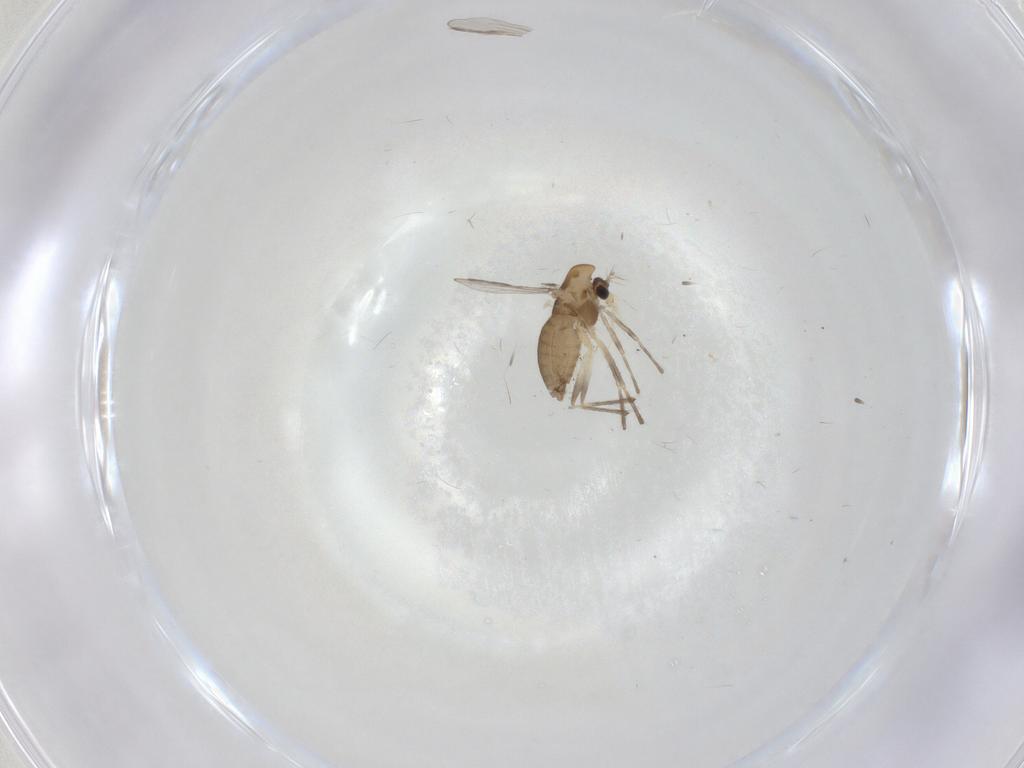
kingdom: Animalia
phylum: Arthropoda
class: Insecta
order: Diptera
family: Chironomidae
